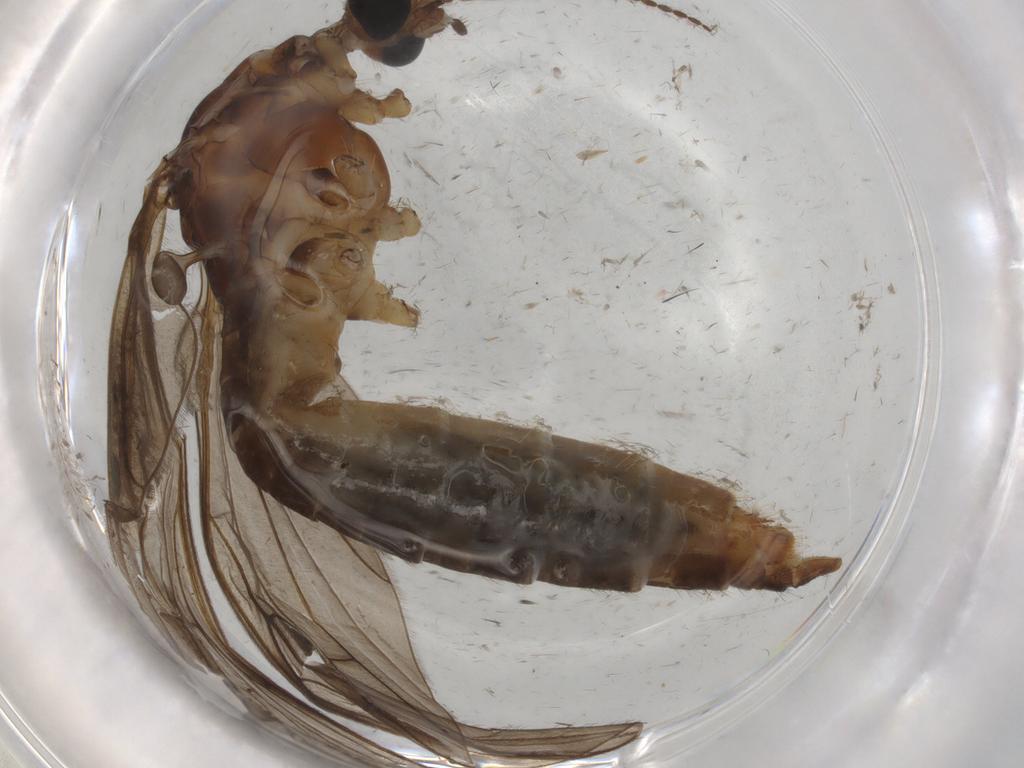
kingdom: Animalia
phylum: Arthropoda
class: Insecta
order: Diptera
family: Limoniidae
